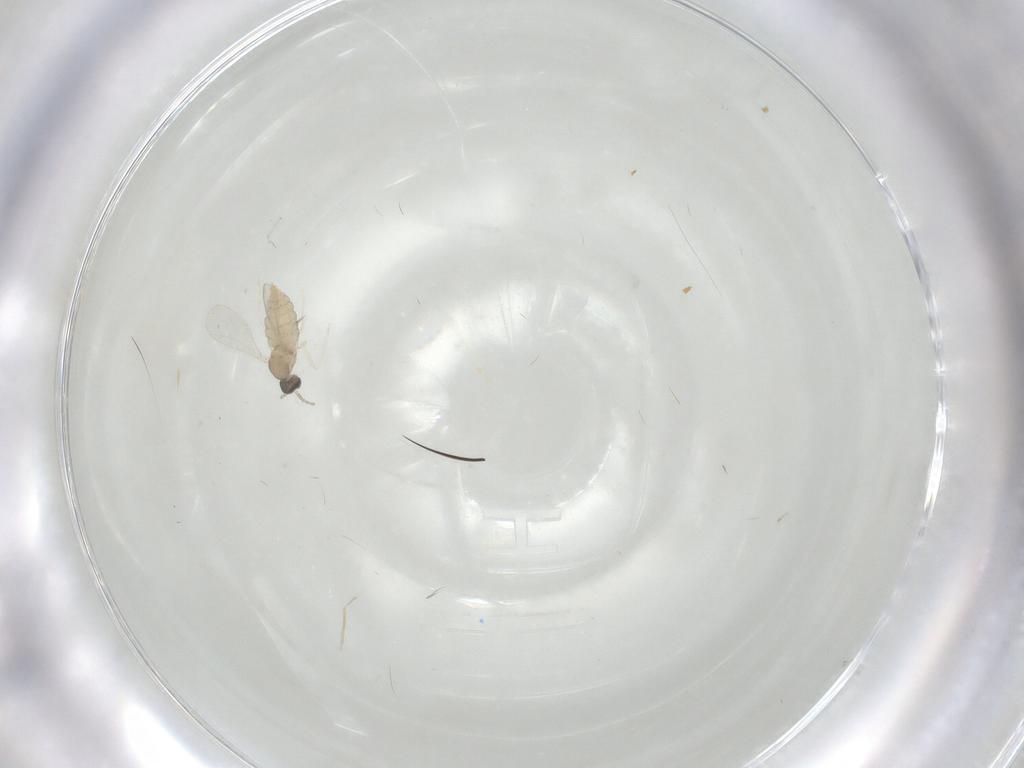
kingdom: Animalia
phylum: Arthropoda
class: Insecta
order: Diptera
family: Cecidomyiidae
